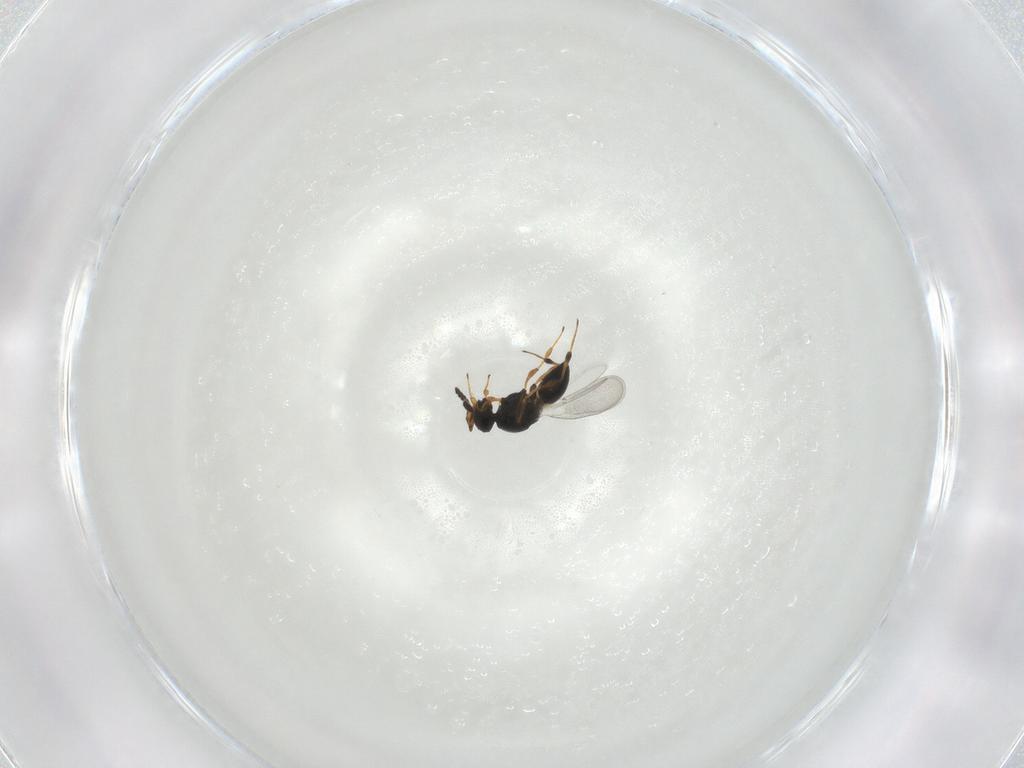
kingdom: Animalia
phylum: Arthropoda
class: Insecta
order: Hymenoptera
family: Platygastridae
